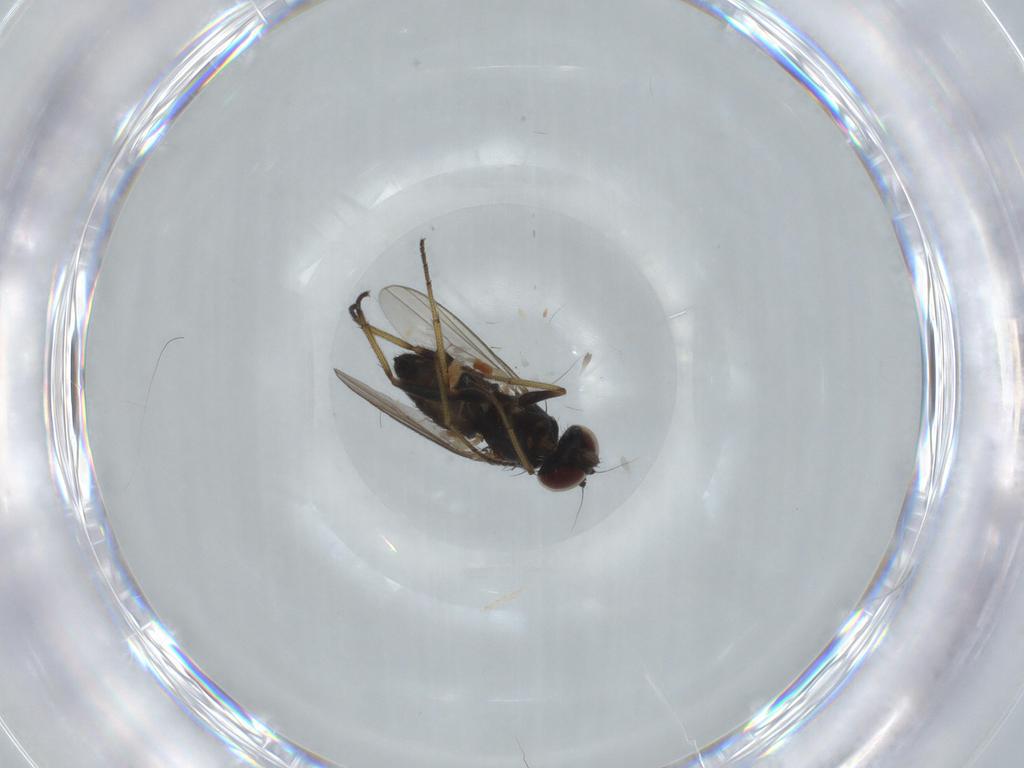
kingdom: Animalia
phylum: Arthropoda
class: Insecta
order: Diptera
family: Dolichopodidae
